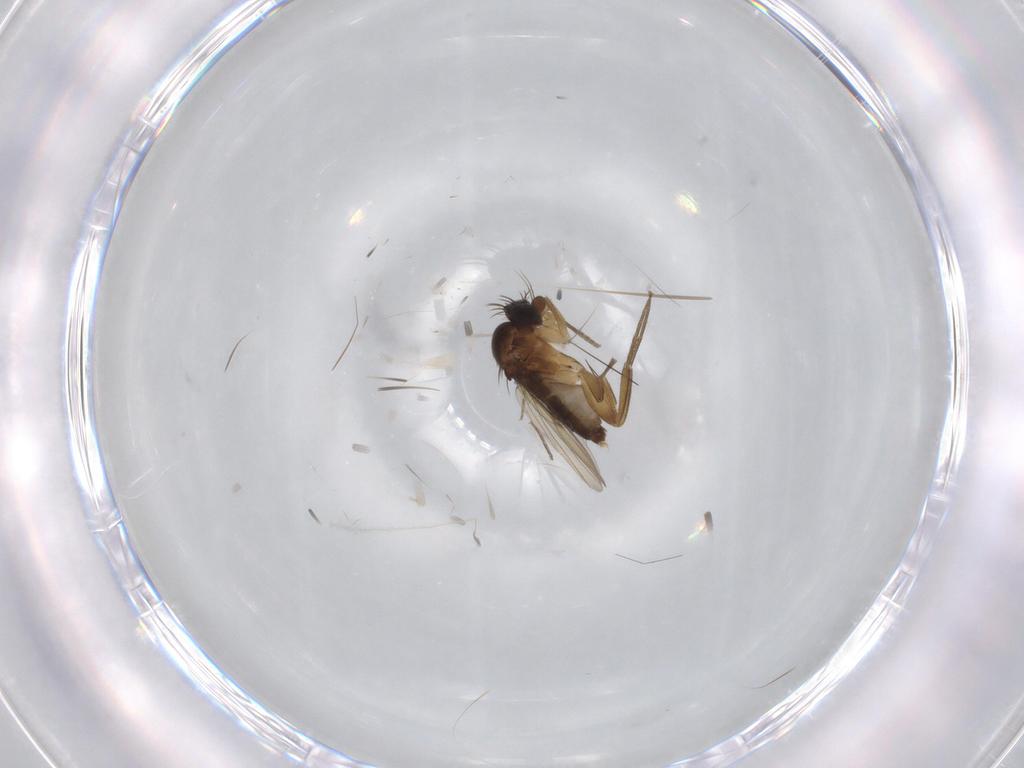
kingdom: Animalia
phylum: Arthropoda
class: Insecta
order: Diptera
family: Phoridae
